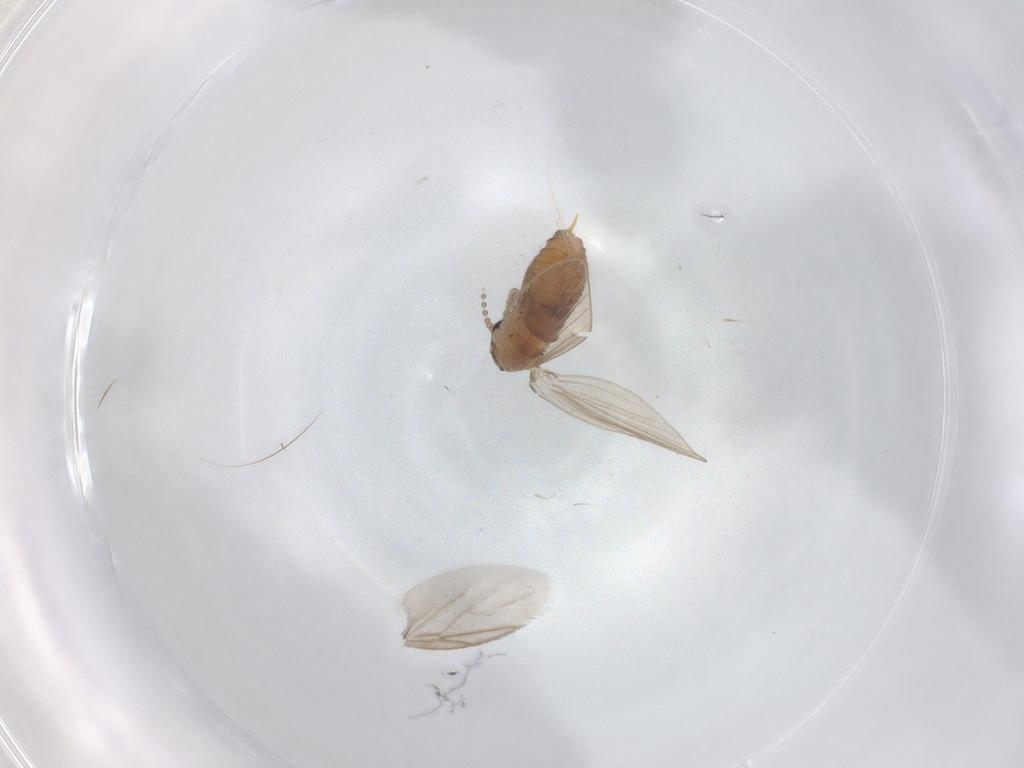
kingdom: Animalia
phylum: Arthropoda
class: Insecta
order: Diptera
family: Psychodidae
